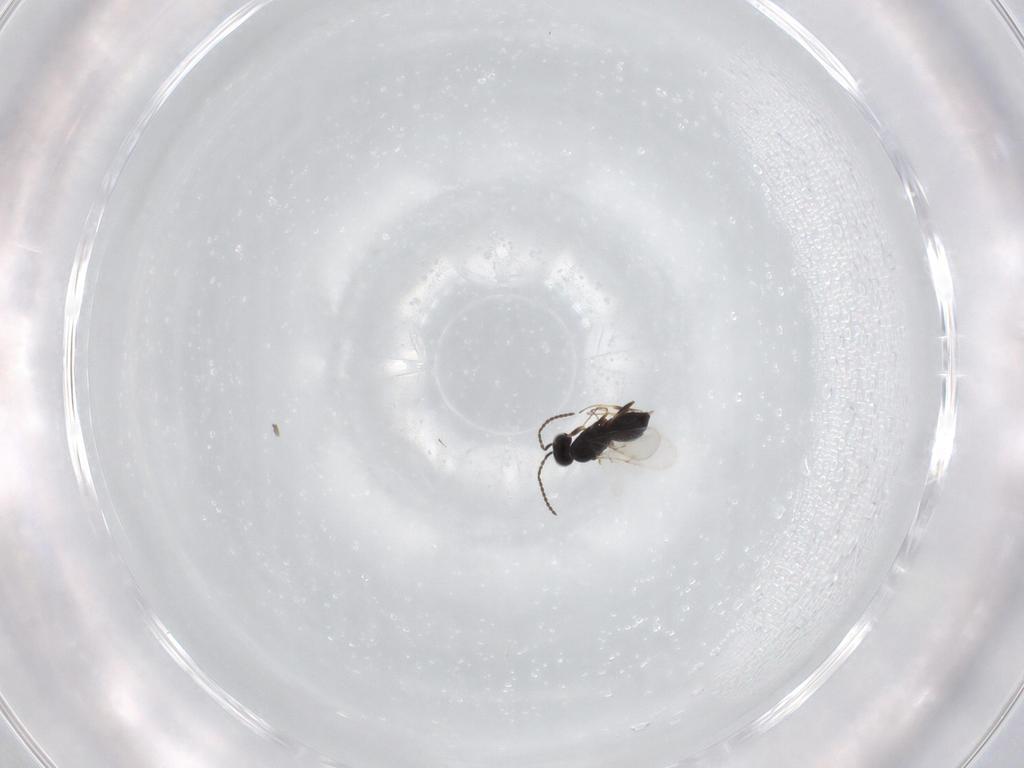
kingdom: Animalia
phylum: Arthropoda
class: Insecta
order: Hymenoptera
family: Scelionidae
